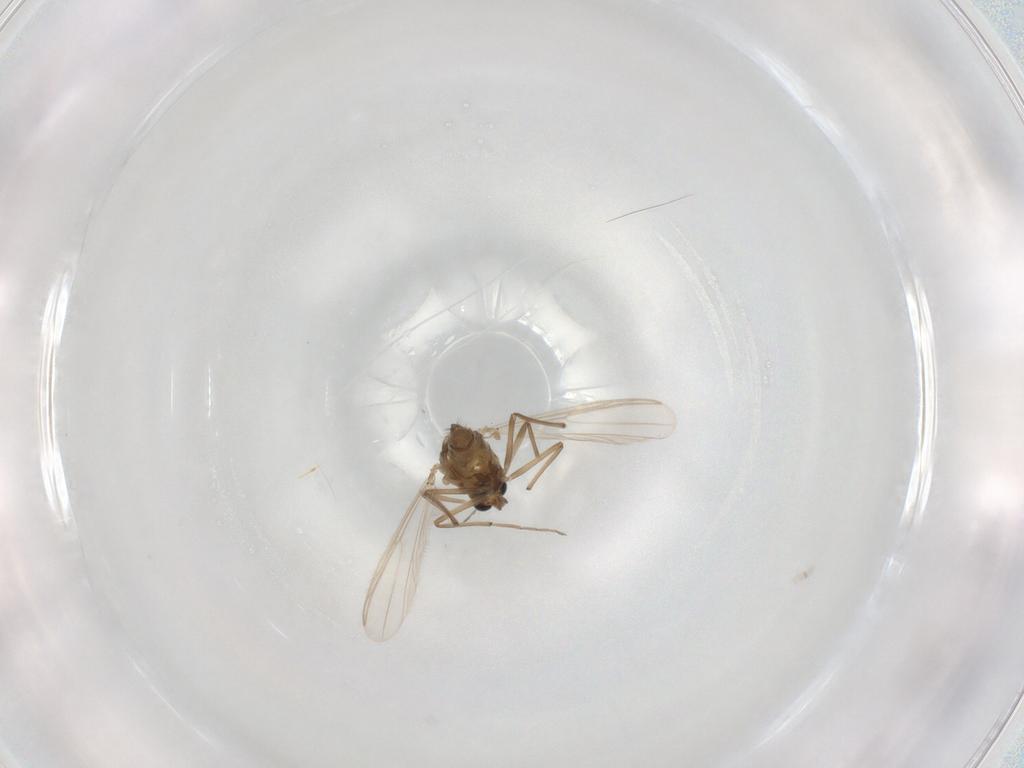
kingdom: Animalia
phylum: Arthropoda
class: Insecta
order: Diptera
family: Chironomidae
